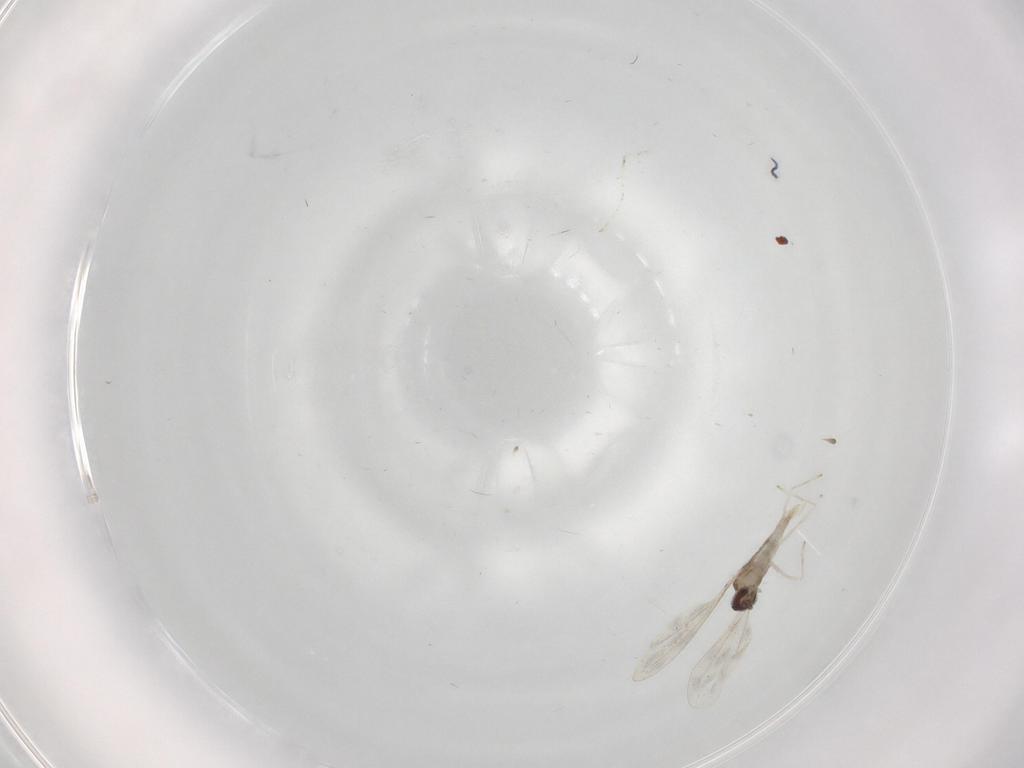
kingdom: Animalia
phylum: Arthropoda
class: Insecta
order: Diptera
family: Cecidomyiidae
